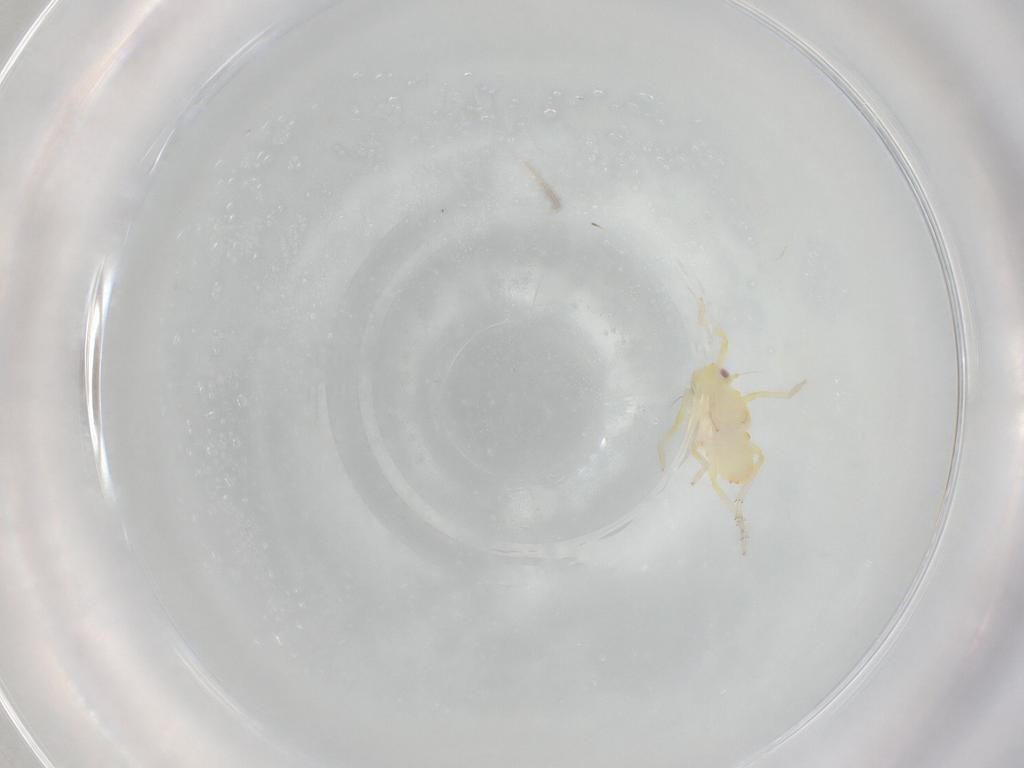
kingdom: Animalia
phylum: Arthropoda
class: Insecta
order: Hemiptera
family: Tropiduchidae
